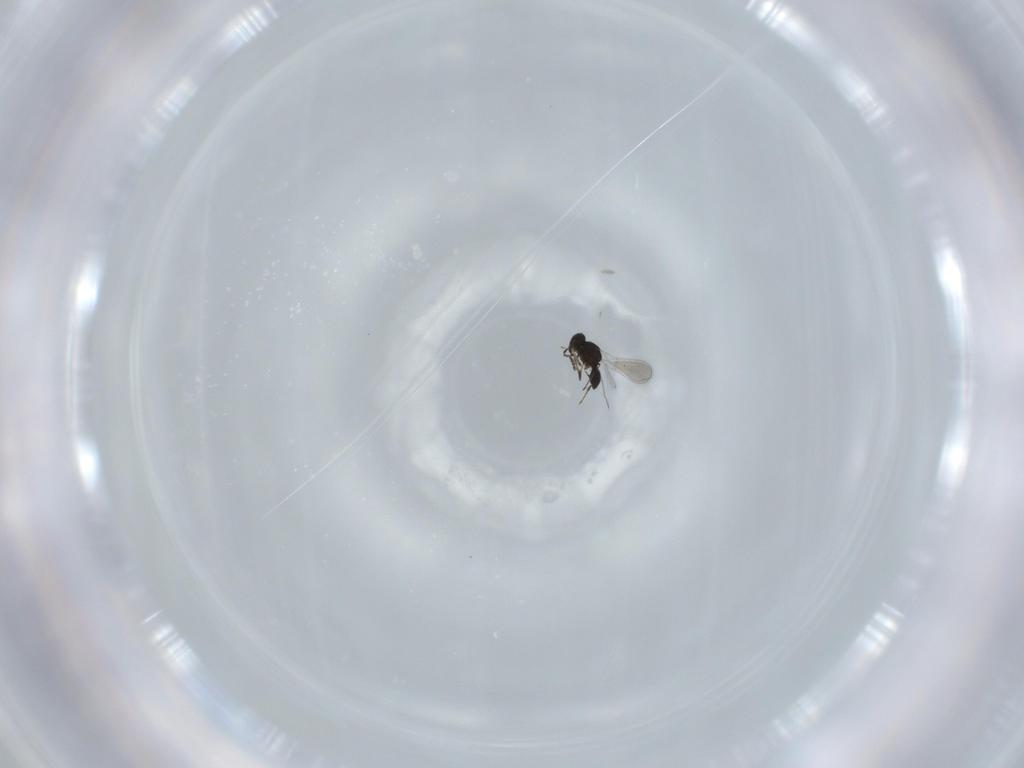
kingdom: Animalia
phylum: Arthropoda
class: Insecta
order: Hymenoptera
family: Platygastridae
